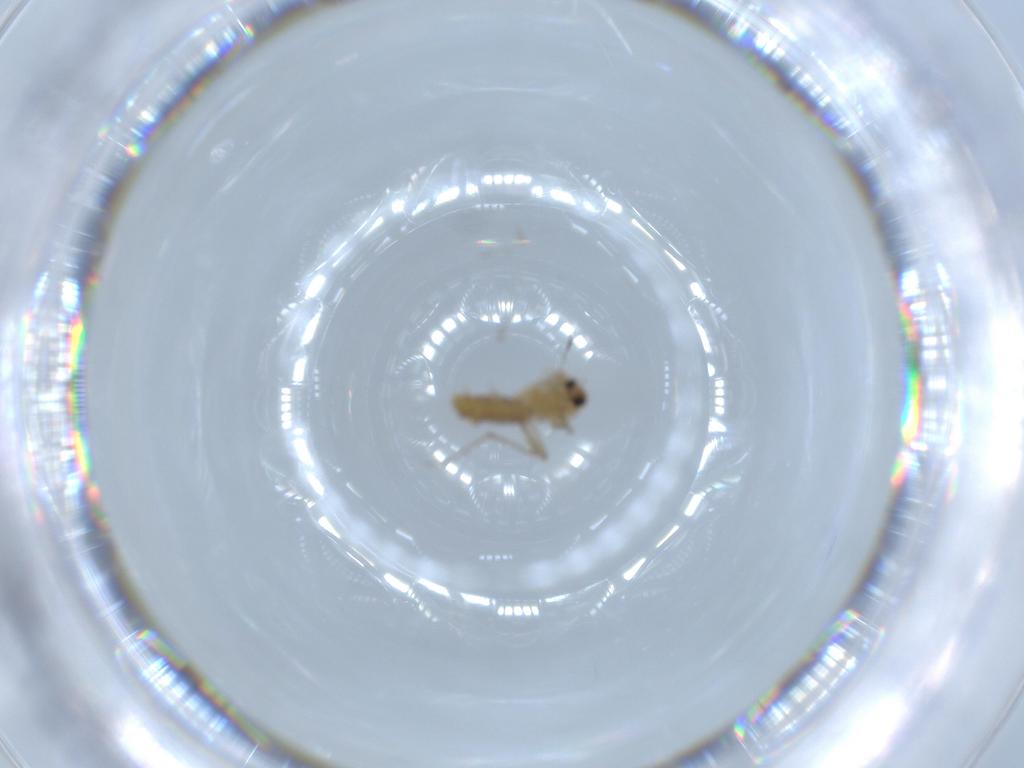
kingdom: Animalia
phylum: Arthropoda
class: Insecta
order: Diptera
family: Chironomidae
